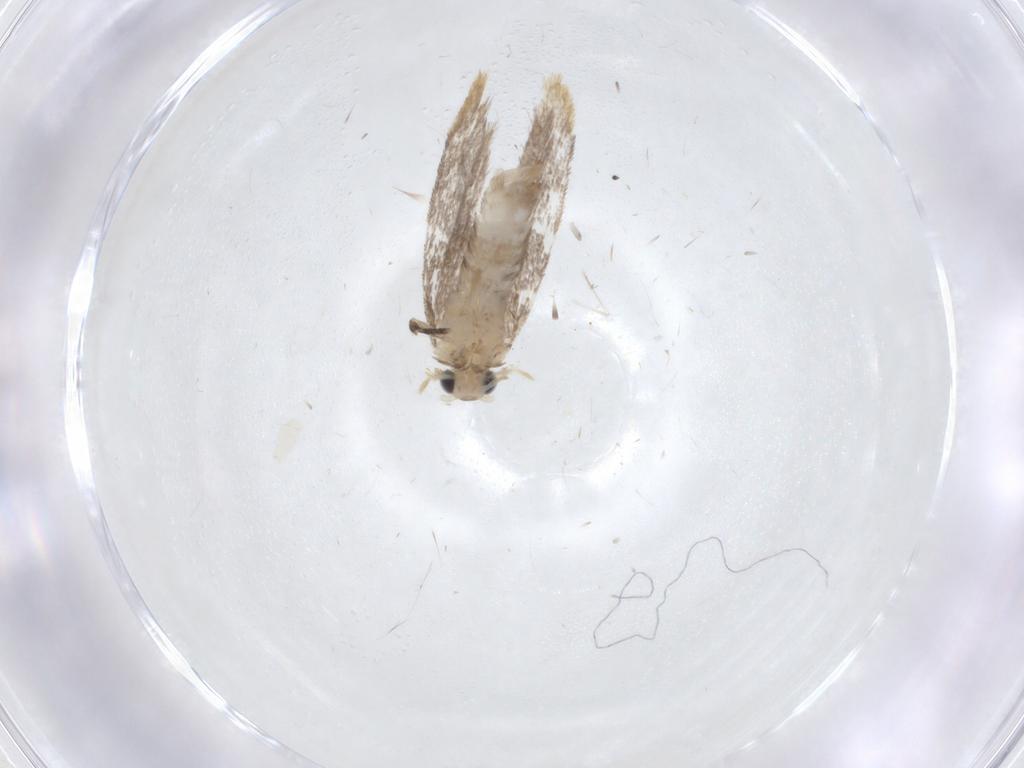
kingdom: Animalia
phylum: Arthropoda
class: Insecta
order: Lepidoptera
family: Dryadaulidae
